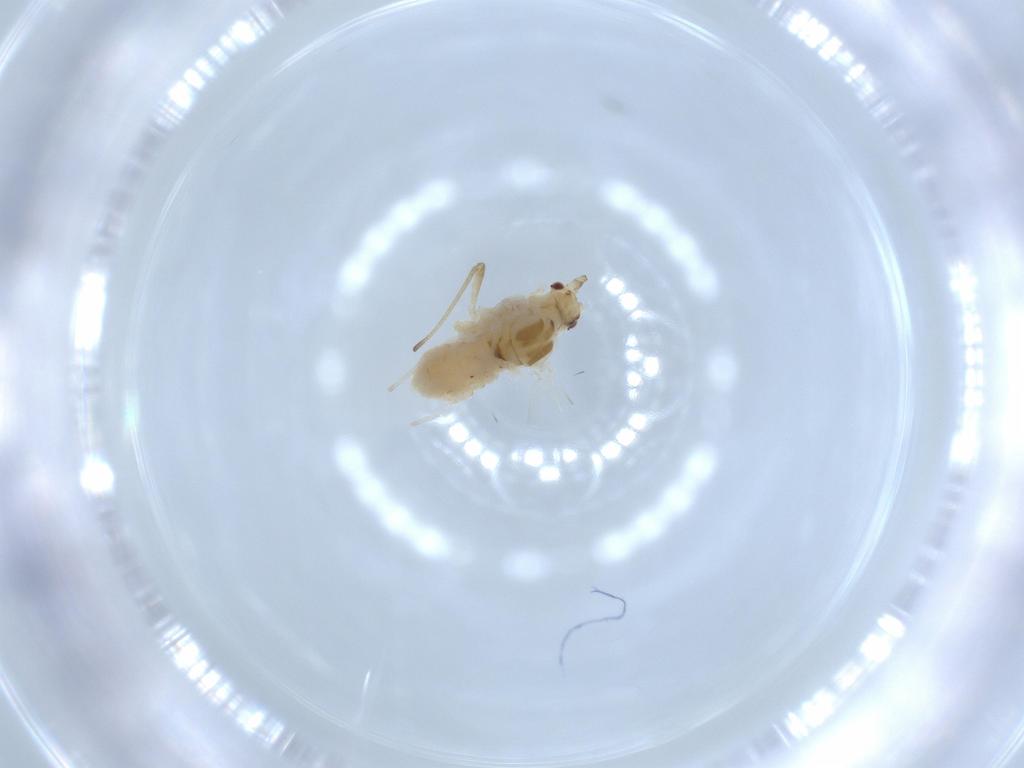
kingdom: Animalia
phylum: Arthropoda
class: Insecta
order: Hemiptera
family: Aphididae
